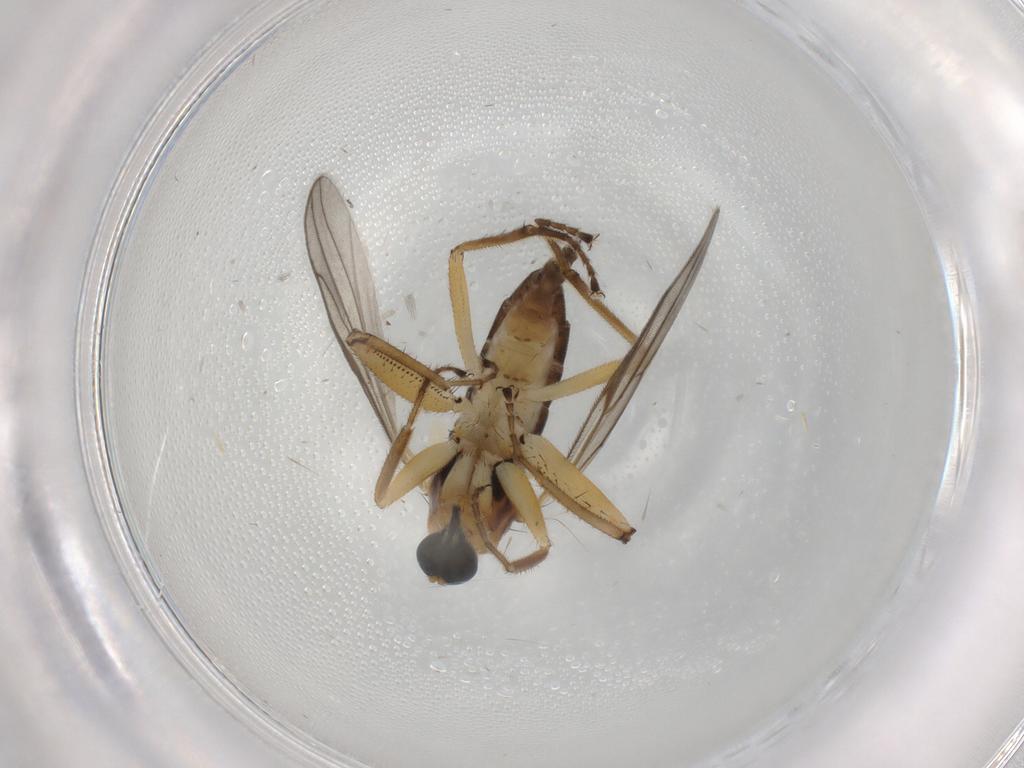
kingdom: Animalia
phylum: Arthropoda
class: Insecta
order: Diptera
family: Hybotidae
